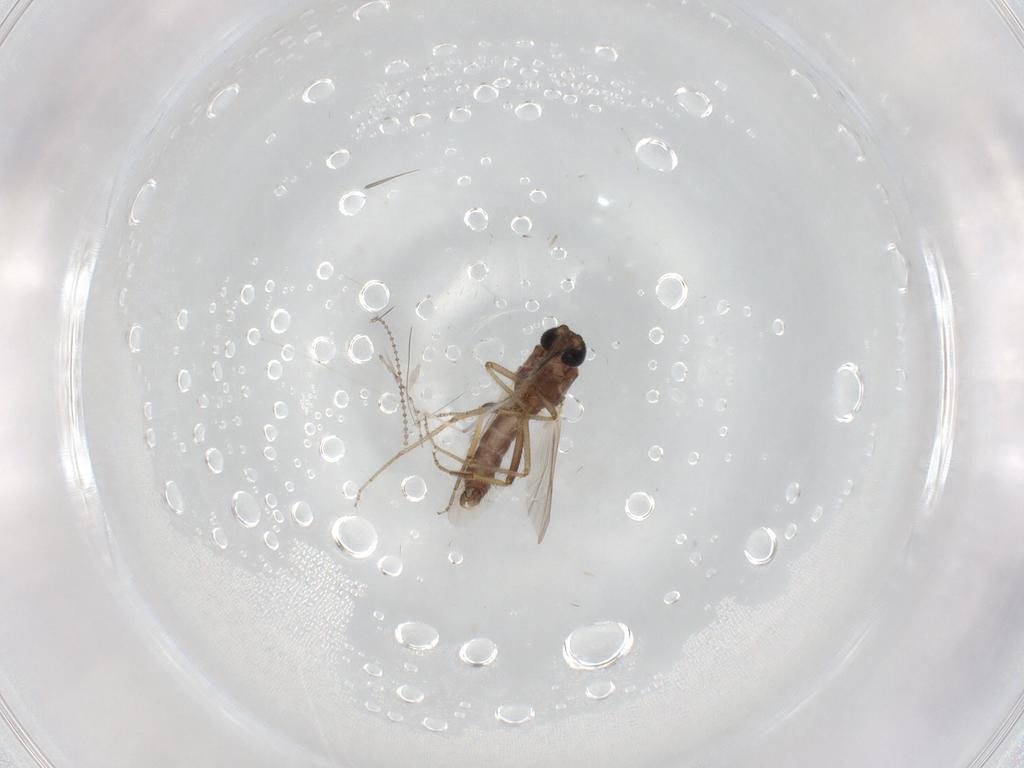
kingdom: Animalia
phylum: Arthropoda
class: Insecta
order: Diptera
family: Ceratopogonidae
